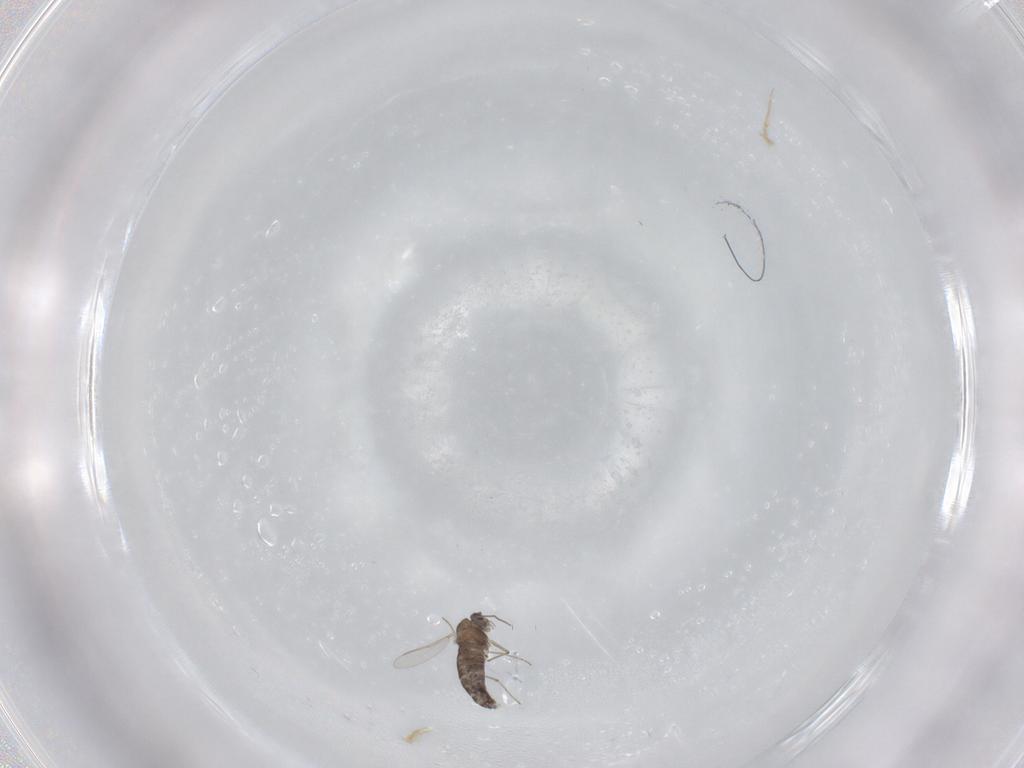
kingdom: Animalia
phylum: Arthropoda
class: Insecta
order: Diptera
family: Chironomidae
